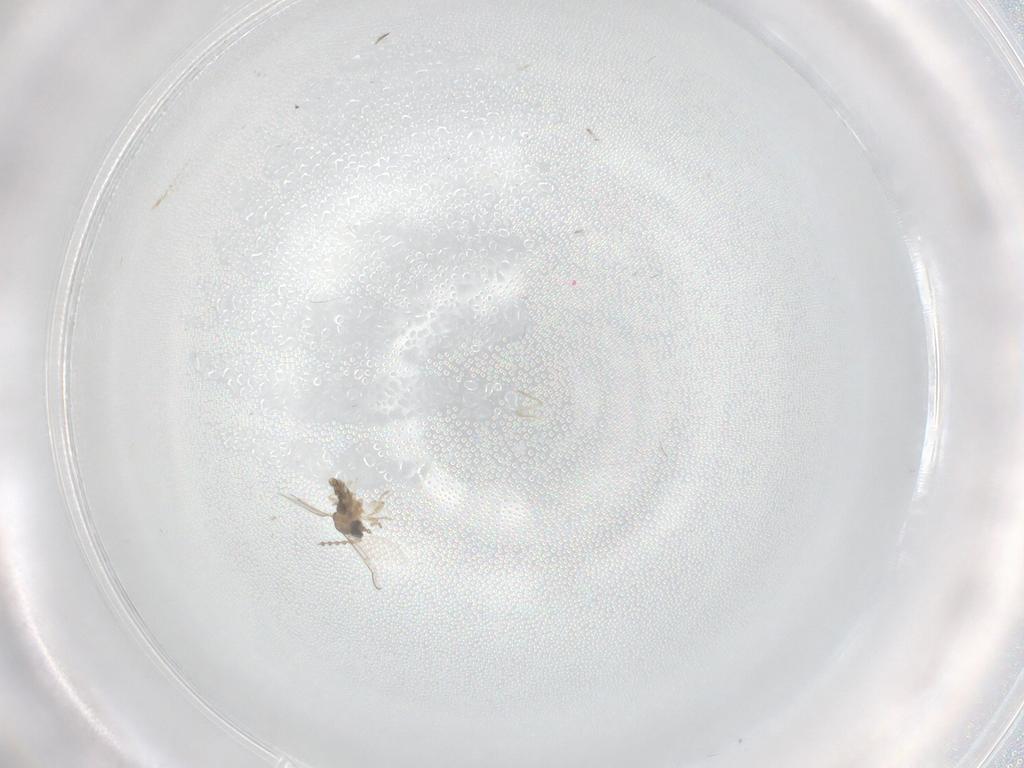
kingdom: Animalia
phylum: Arthropoda
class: Insecta
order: Diptera
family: Cecidomyiidae
